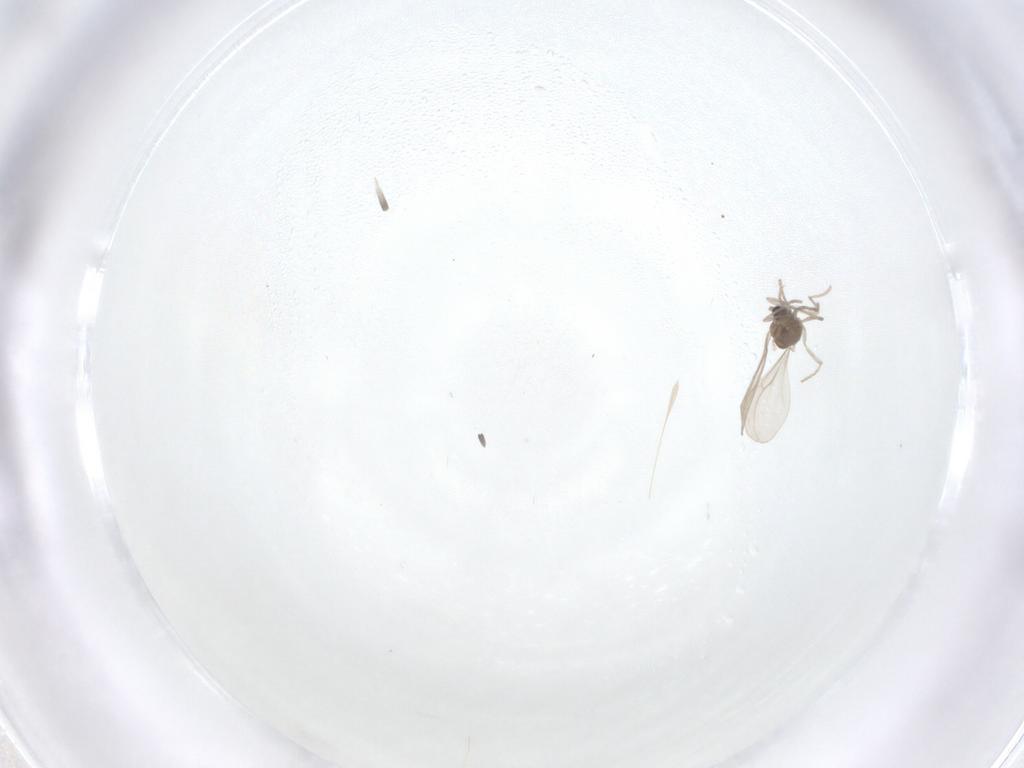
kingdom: Animalia
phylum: Arthropoda
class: Insecta
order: Diptera
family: Chironomidae
